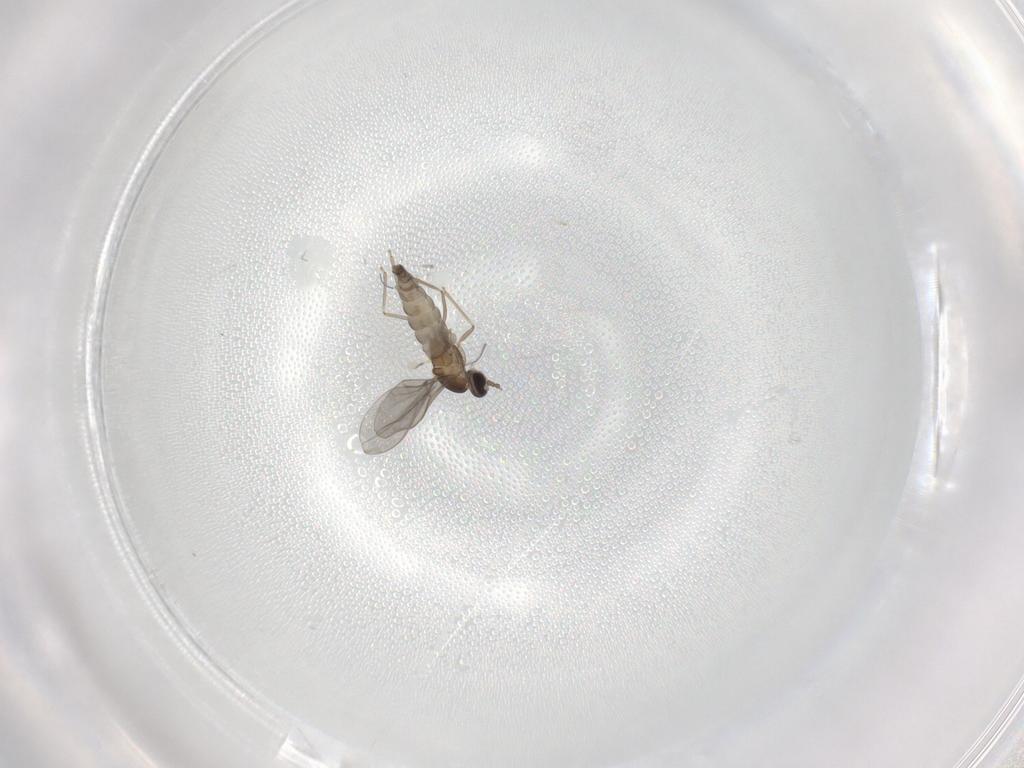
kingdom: Animalia
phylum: Arthropoda
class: Insecta
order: Diptera
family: Cecidomyiidae
